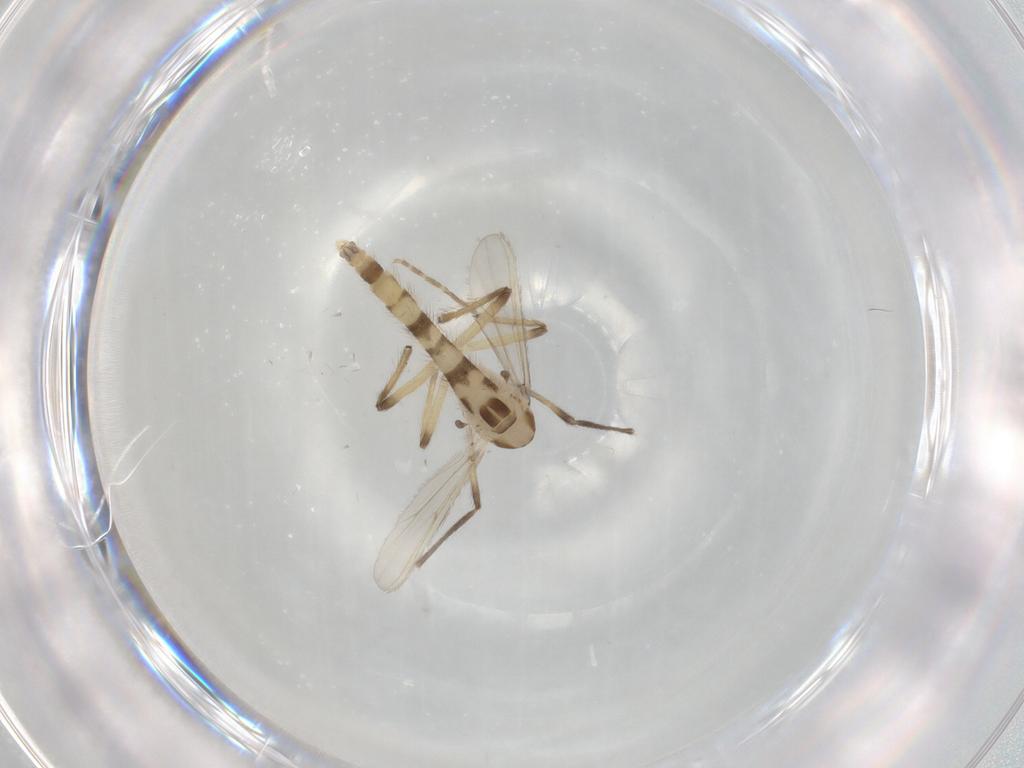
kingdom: Animalia
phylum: Arthropoda
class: Insecta
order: Diptera
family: Chironomidae
